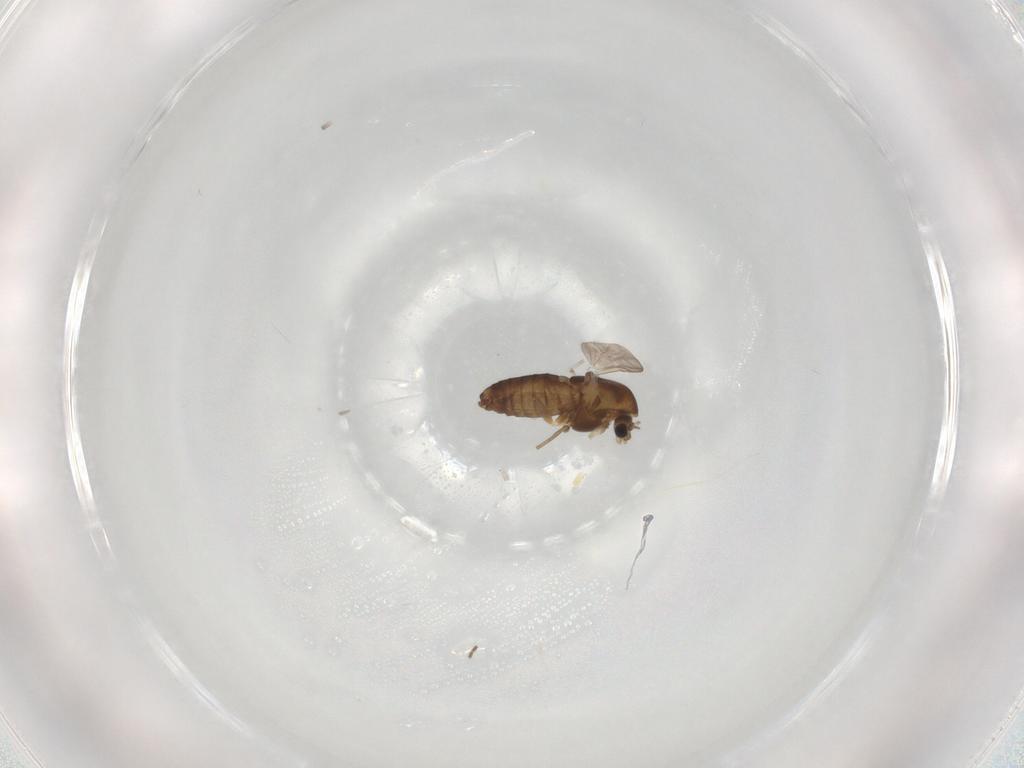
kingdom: Animalia
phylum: Arthropoda
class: Insecta
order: Diptera
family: Chironomidae
